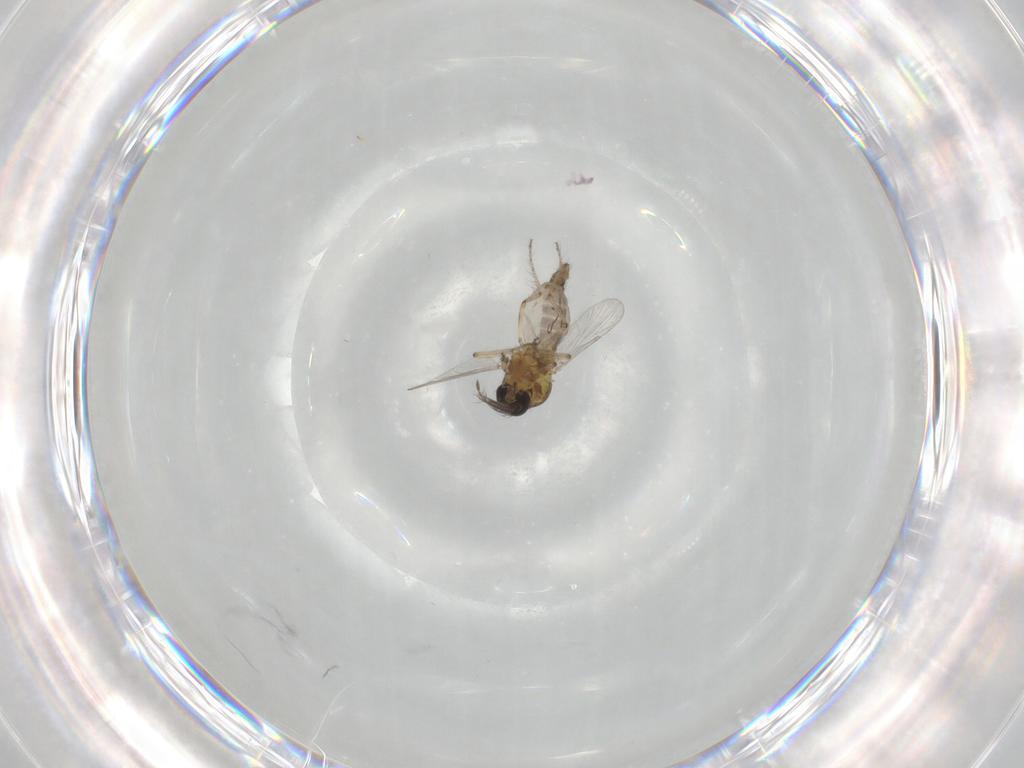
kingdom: Animalia
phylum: Arthropoda
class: Insecta
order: Diptera
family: Ceratopogonidae
